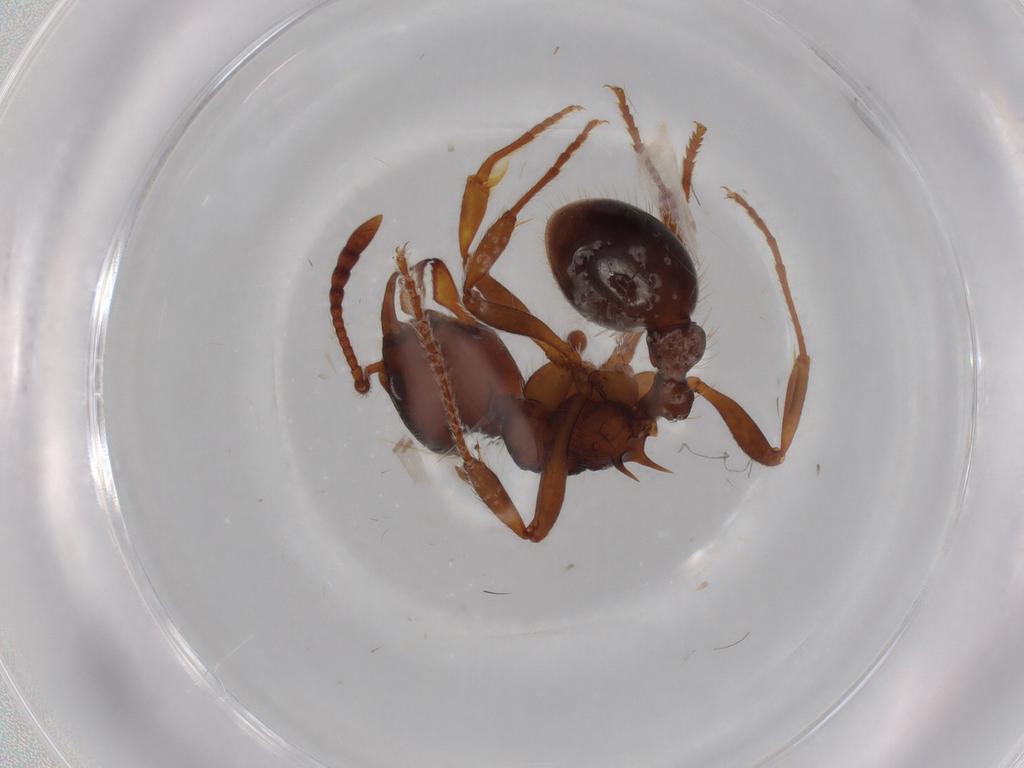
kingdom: Animalia
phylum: Arthropoda
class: Insecta
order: Hymenoptera
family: Formicidae
